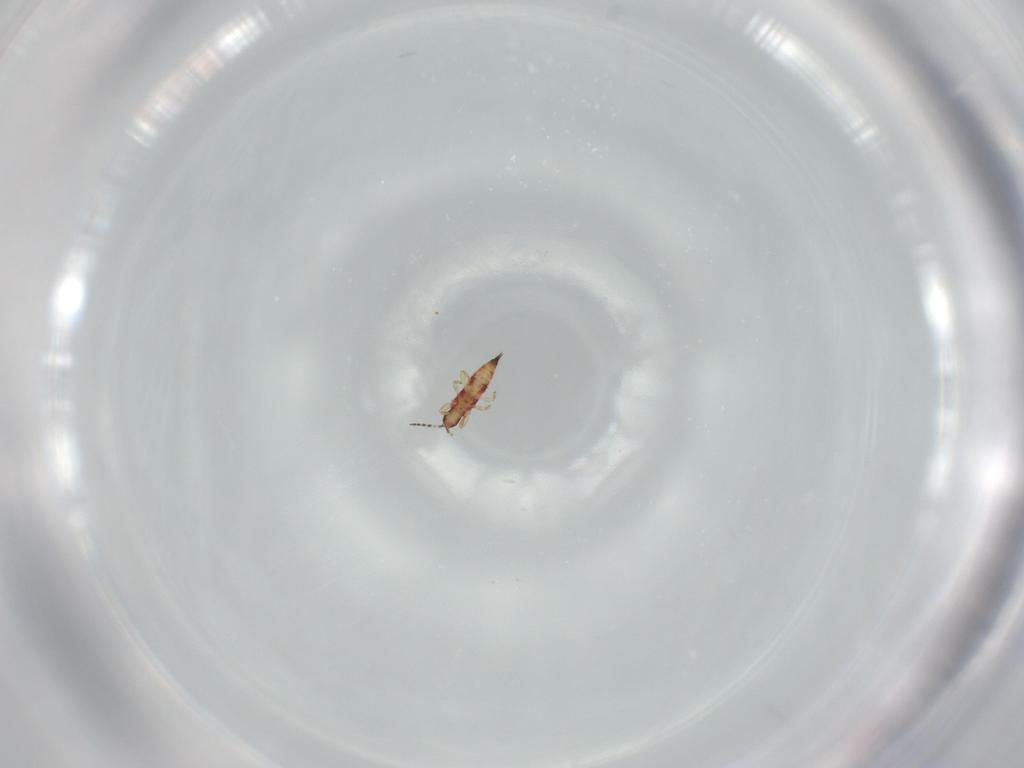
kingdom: Animalia
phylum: Arthropoda
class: Insecta
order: Thysanoptera
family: Phlaeothripidae
